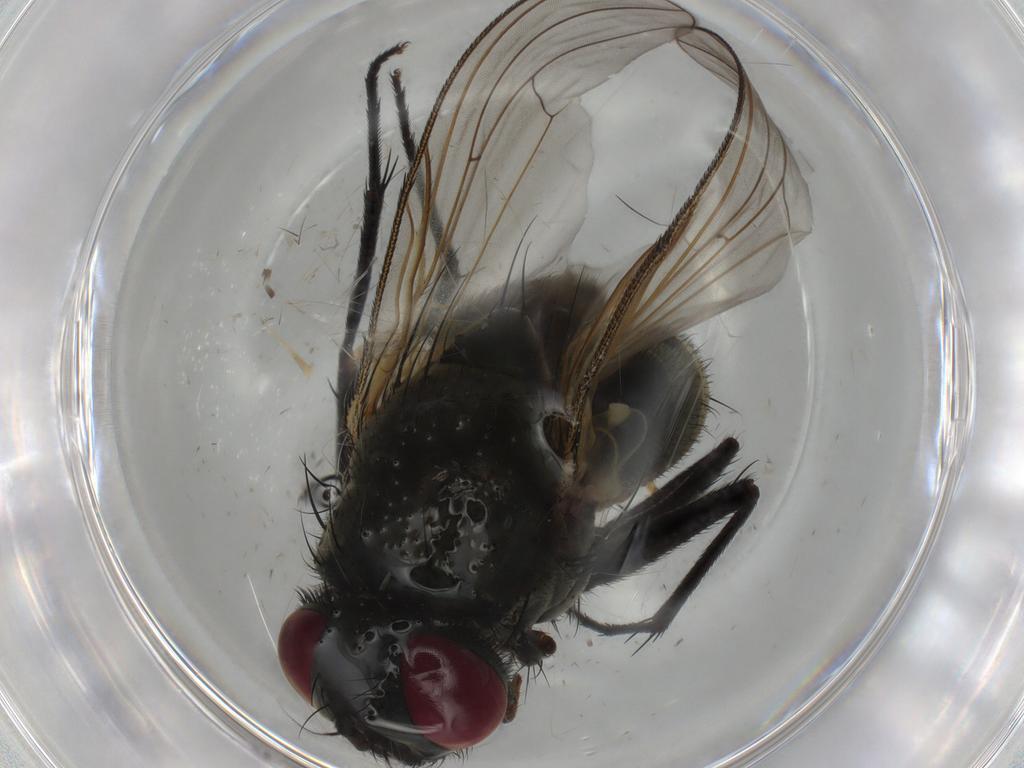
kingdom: Animalia
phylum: Arthropoda
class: Insecta
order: Diptera
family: Muscidae
